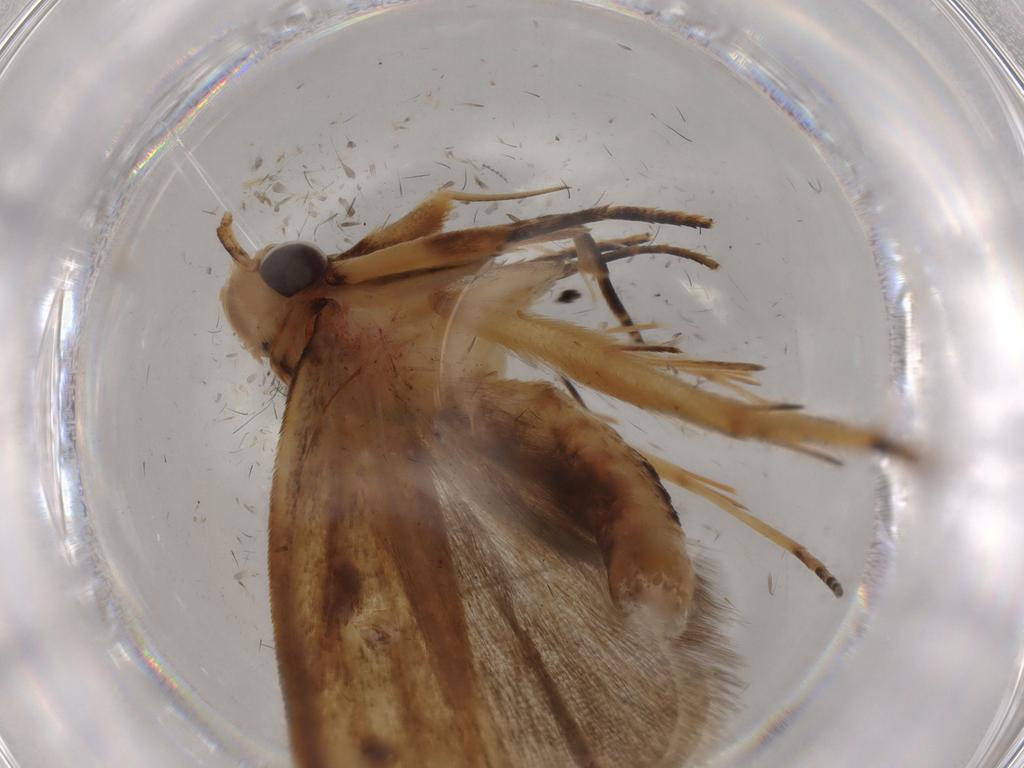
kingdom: Animalia
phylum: Arthropoda
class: Insecta
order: Lepidoptera
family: Gelechiidae
